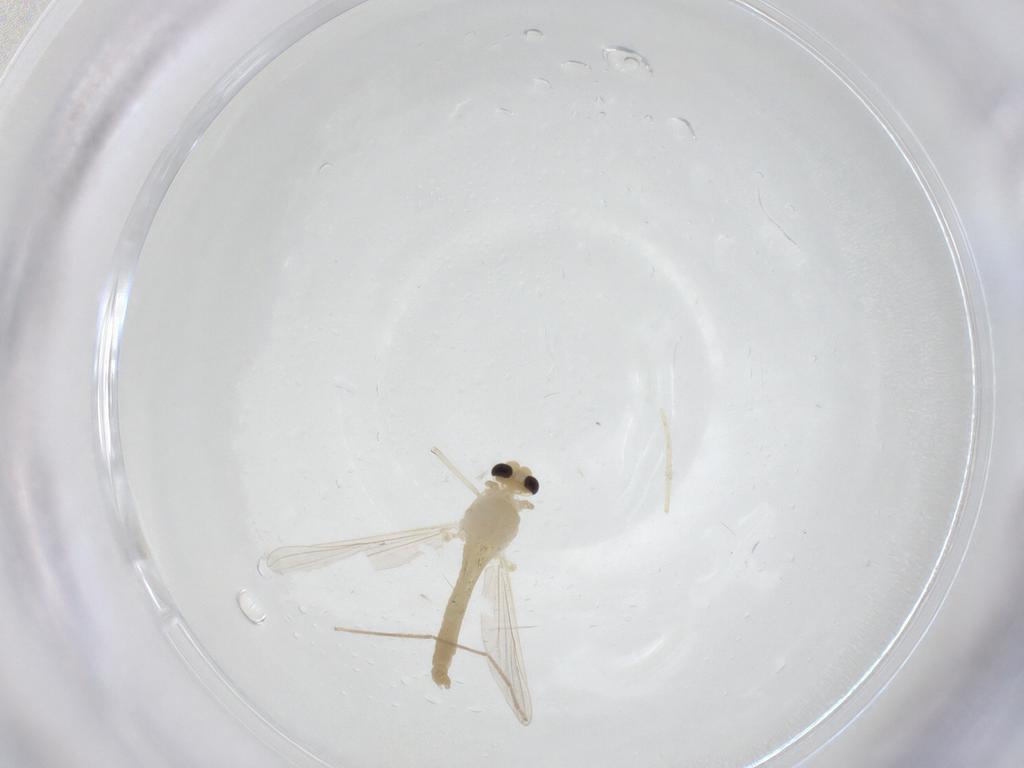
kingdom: Animalia
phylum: Arthropoda
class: Insecta
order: Diptera
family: Chironomidae
